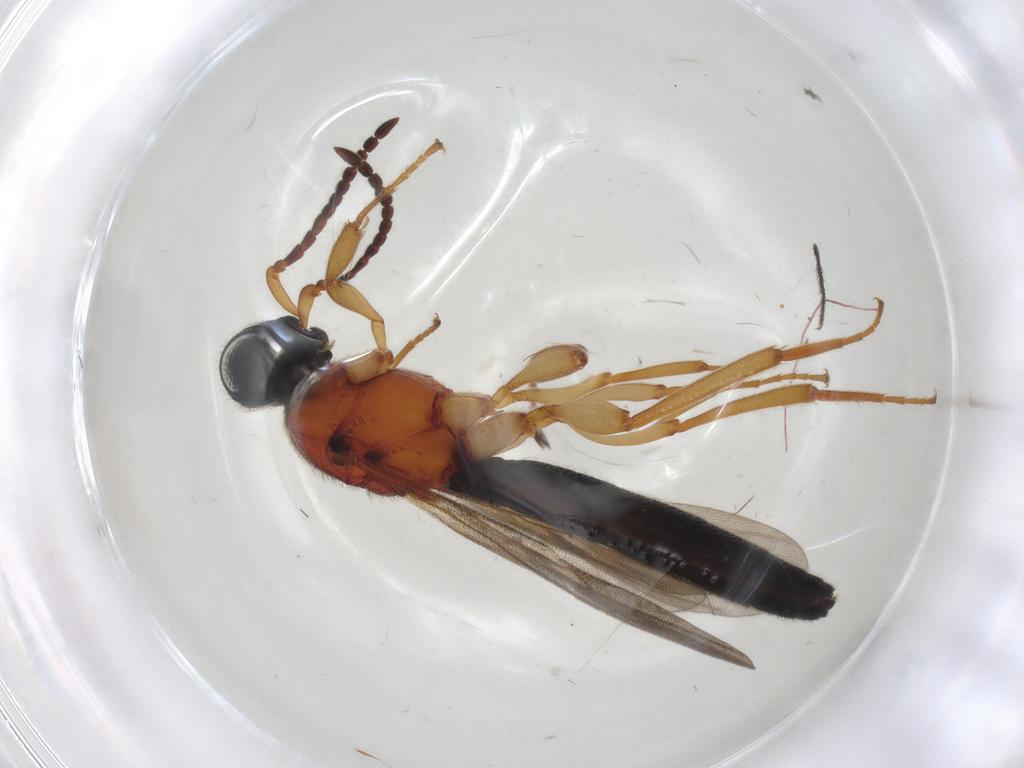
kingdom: Animalia
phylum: Arthropoda
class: Insecta
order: Hymenoptera
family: Scelionidae
